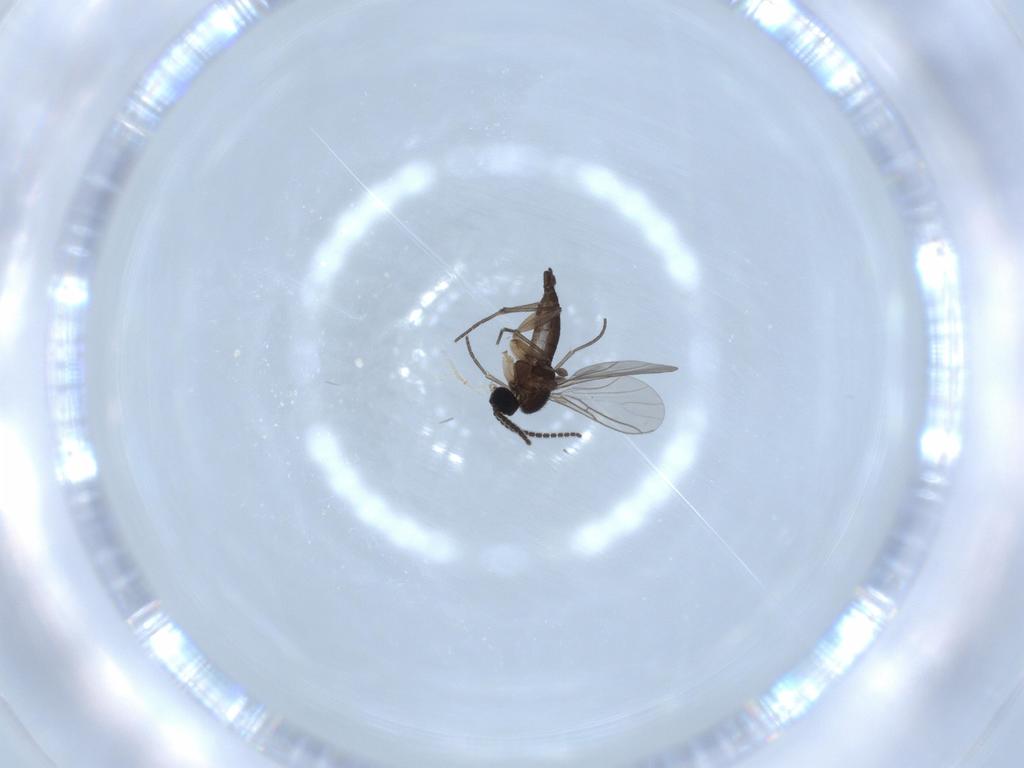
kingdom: Animalia
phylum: Arthropoda
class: Insecta
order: Diptera
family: Sciaridae
